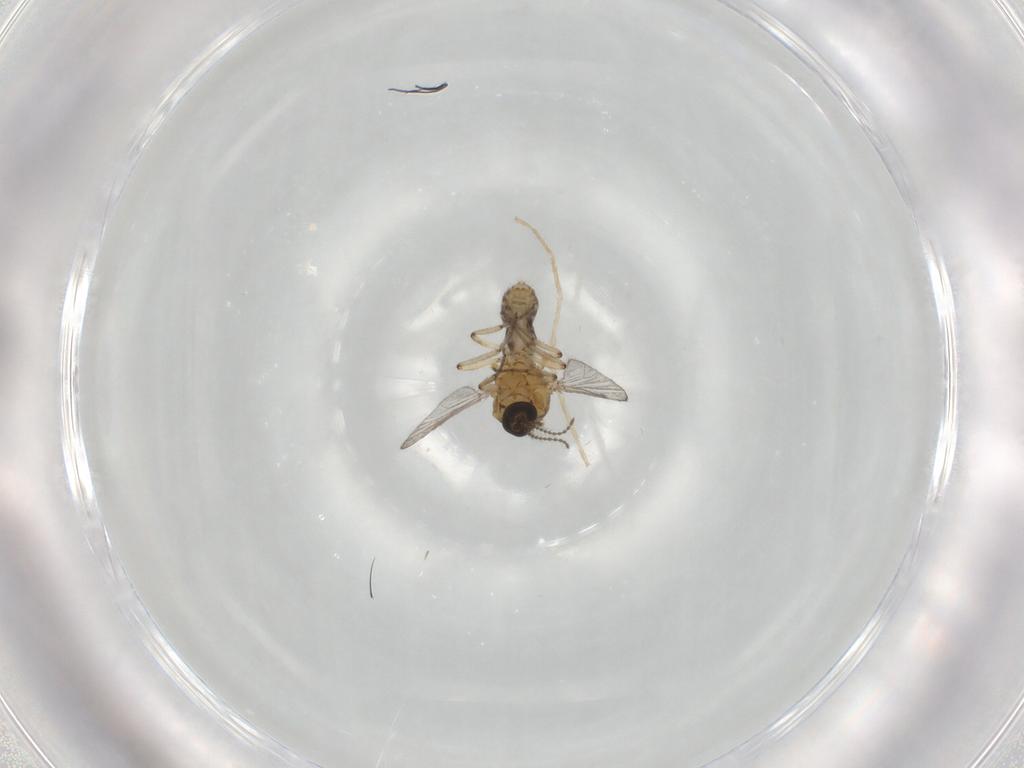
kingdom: Animalia
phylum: Arthropoda
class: Insecta
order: Diptera
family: Ceratopogonidae
